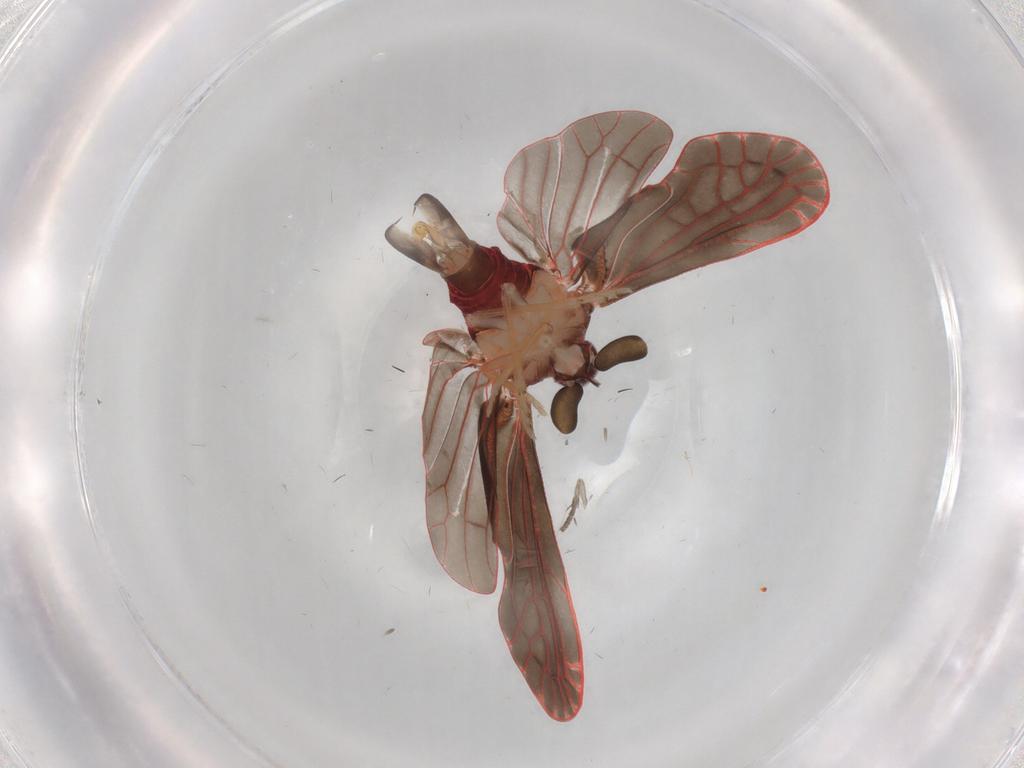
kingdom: Animalia
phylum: Arthropoda
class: Insecta
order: Hemiptera
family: Derbidae
